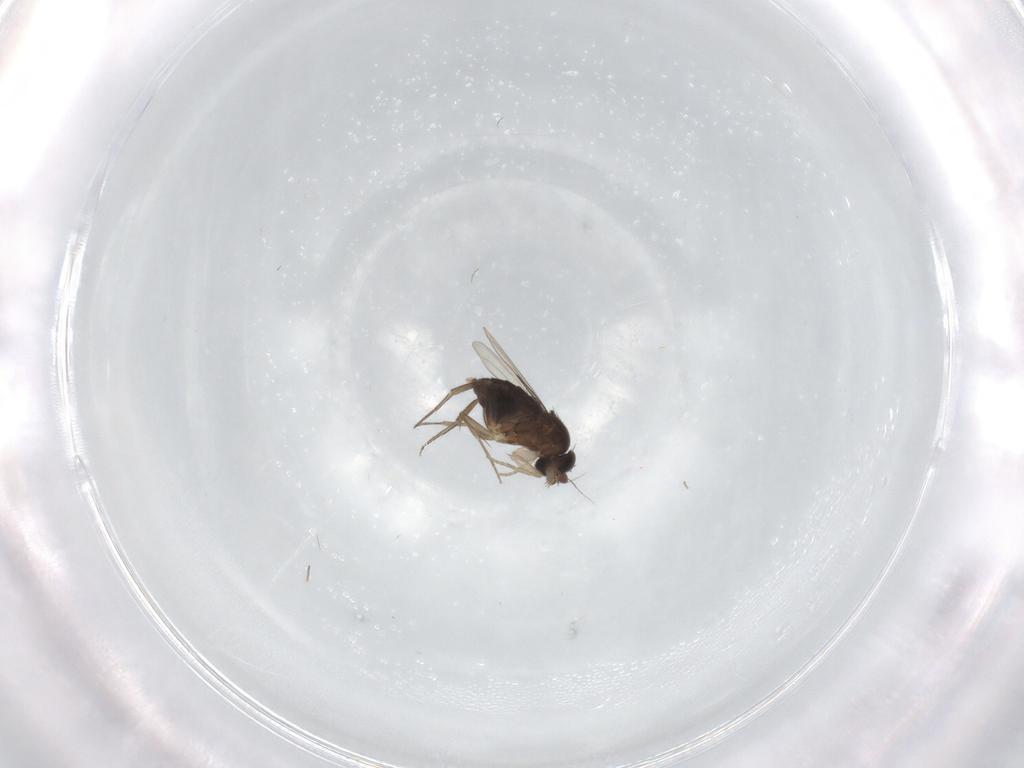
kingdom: Animalia
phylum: Arthropoda
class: Insecta
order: Diptera
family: Phoridae
